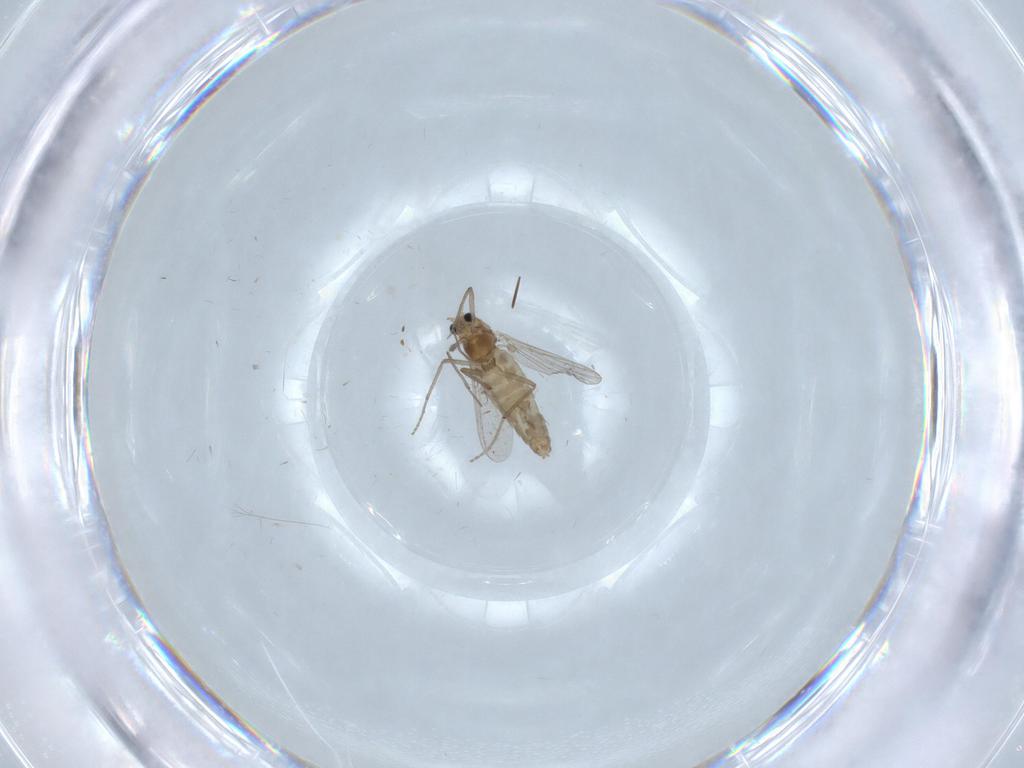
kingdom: Animalia
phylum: Arthropoda
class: Insecta
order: Diptera
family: Chironomidae
